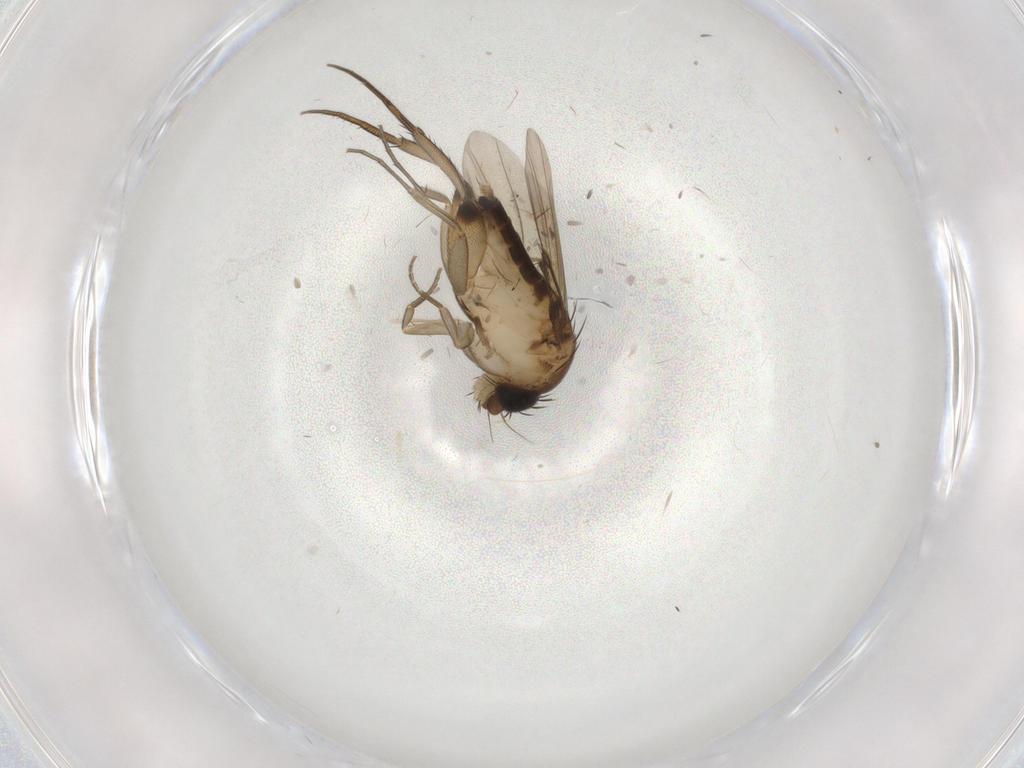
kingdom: Animalia
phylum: Arthropoda
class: Insecta
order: Diptera
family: Phoridae
